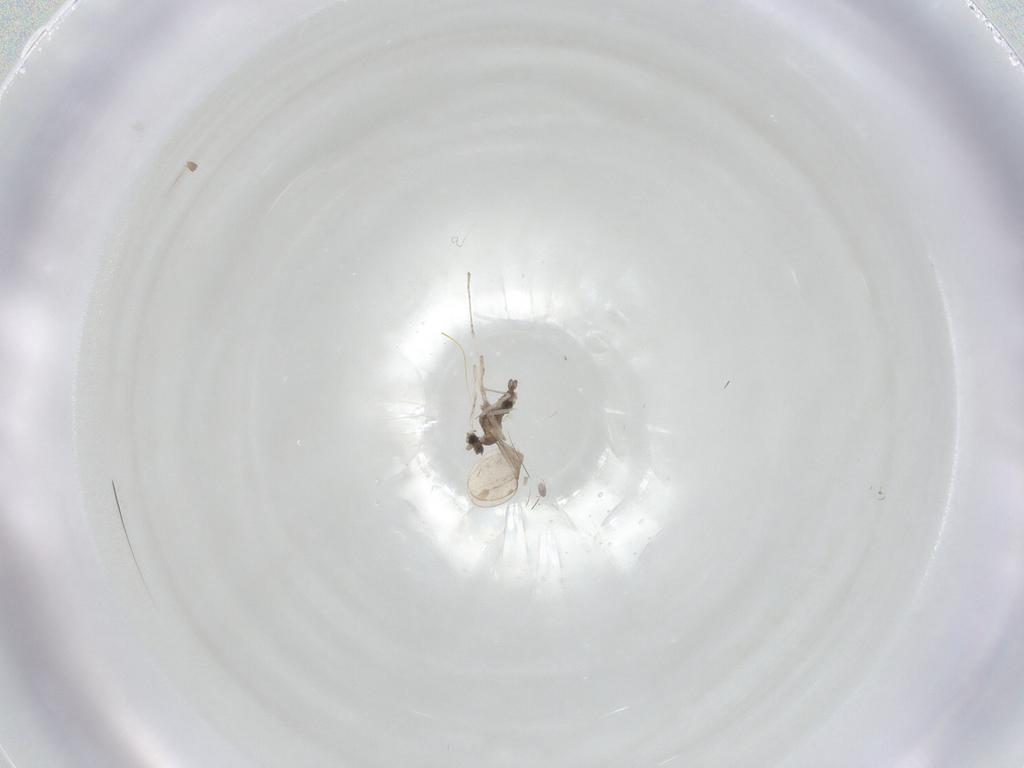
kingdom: Animalia
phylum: Arthropoda
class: Insecta
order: Diptera
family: Cecidomyiidae
